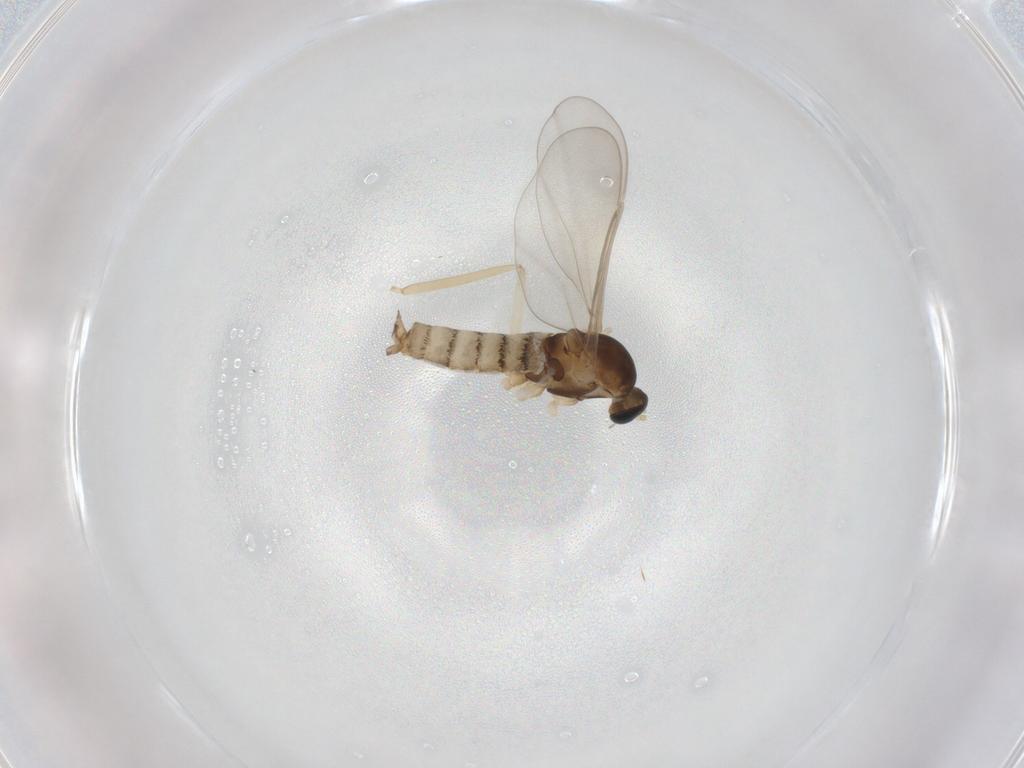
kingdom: Animalia
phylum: Arthropoda
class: Insecta
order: Diptera
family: Cecidomyiidae
